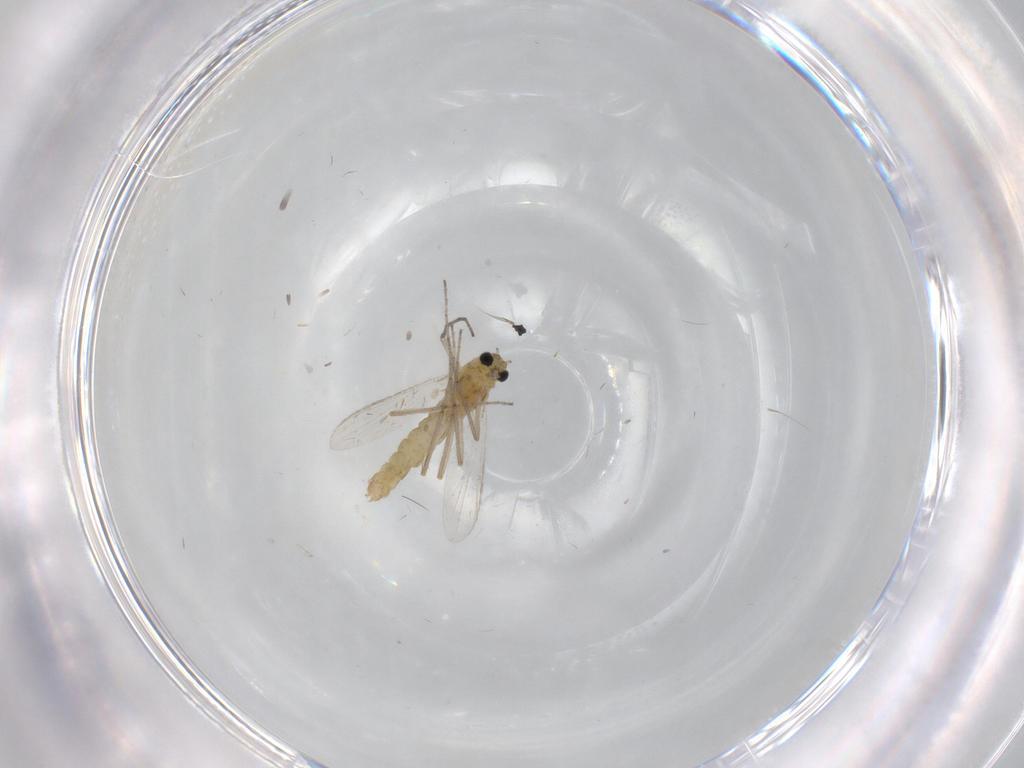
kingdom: Animalia
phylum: Arthropoda
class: Insecta
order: Diptera
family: Chironomidae
